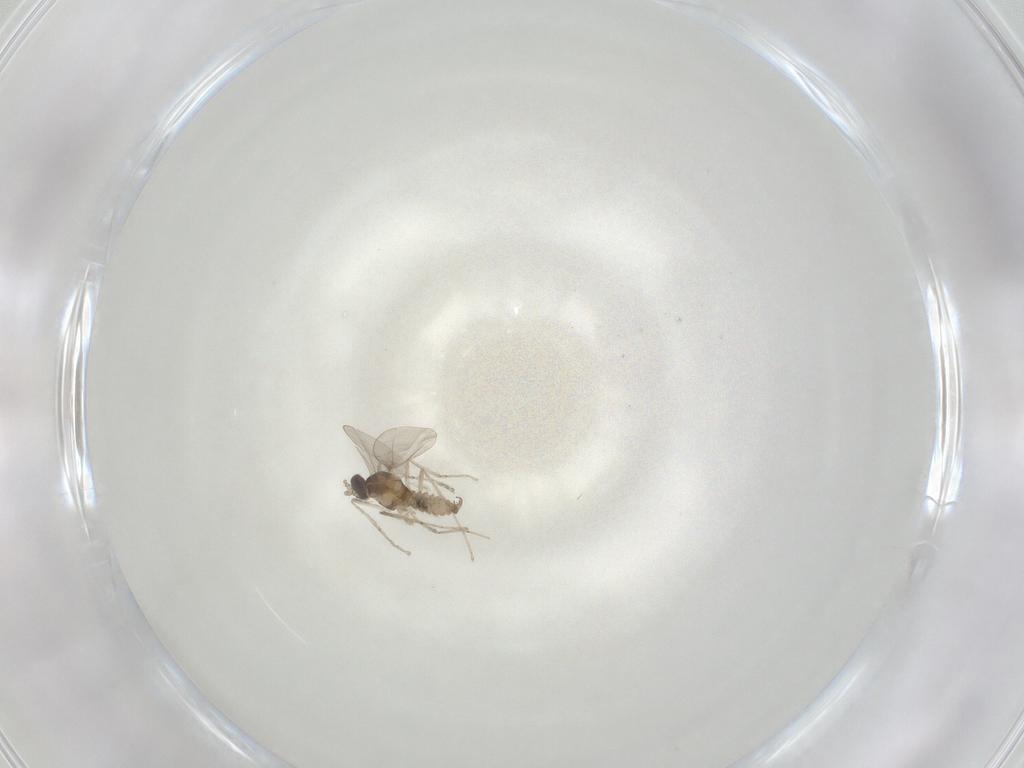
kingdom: Animalia
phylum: Arthropoda
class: Insecta
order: Diptera
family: Cecidomyiidae
